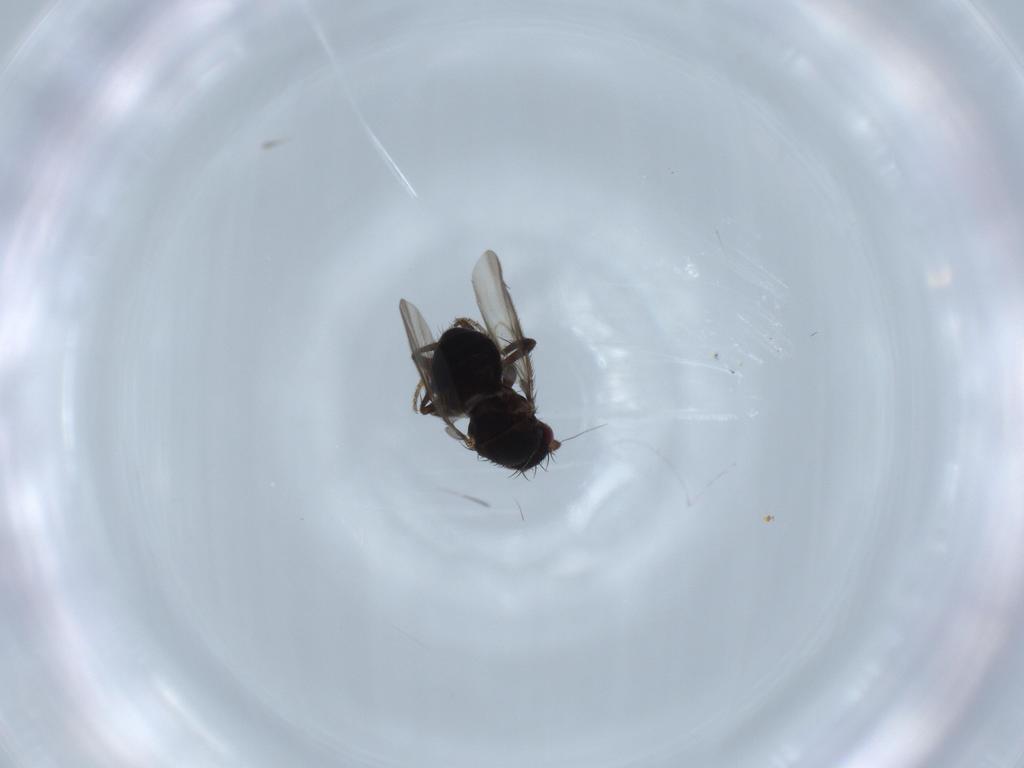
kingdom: Animalia
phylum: Arthropoda
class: Insecta
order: Diptera
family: Sphaeroceridae
